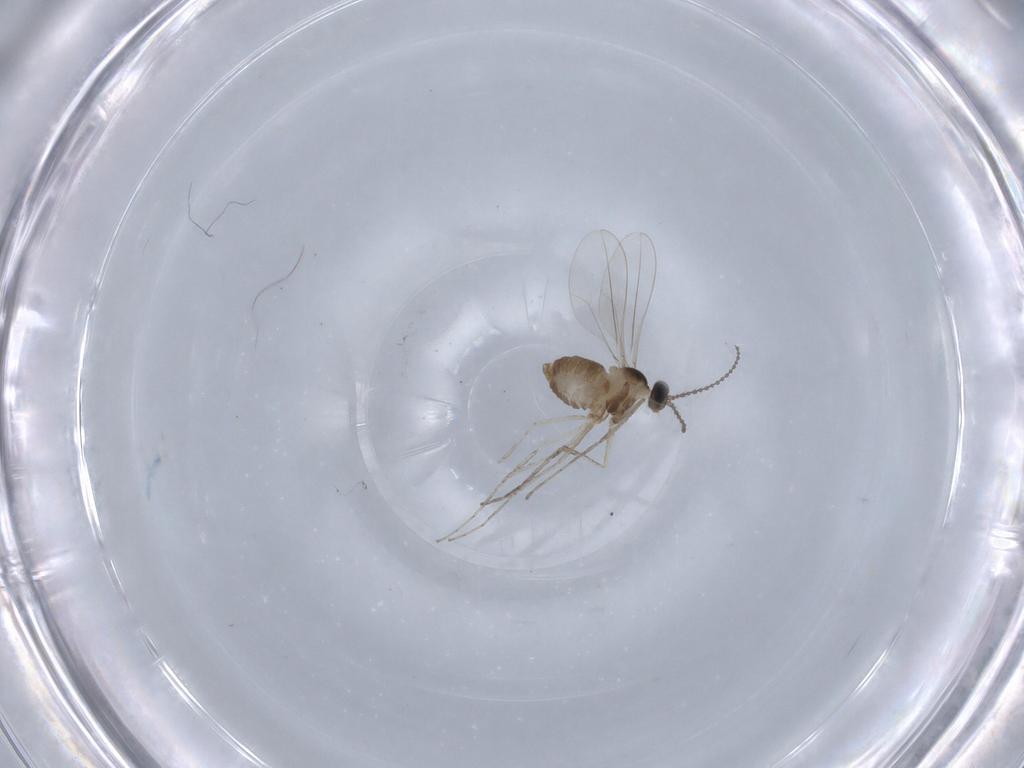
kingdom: Animalia
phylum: Arthropoda
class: Insecta
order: Diptera
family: Cecidomyiidae
